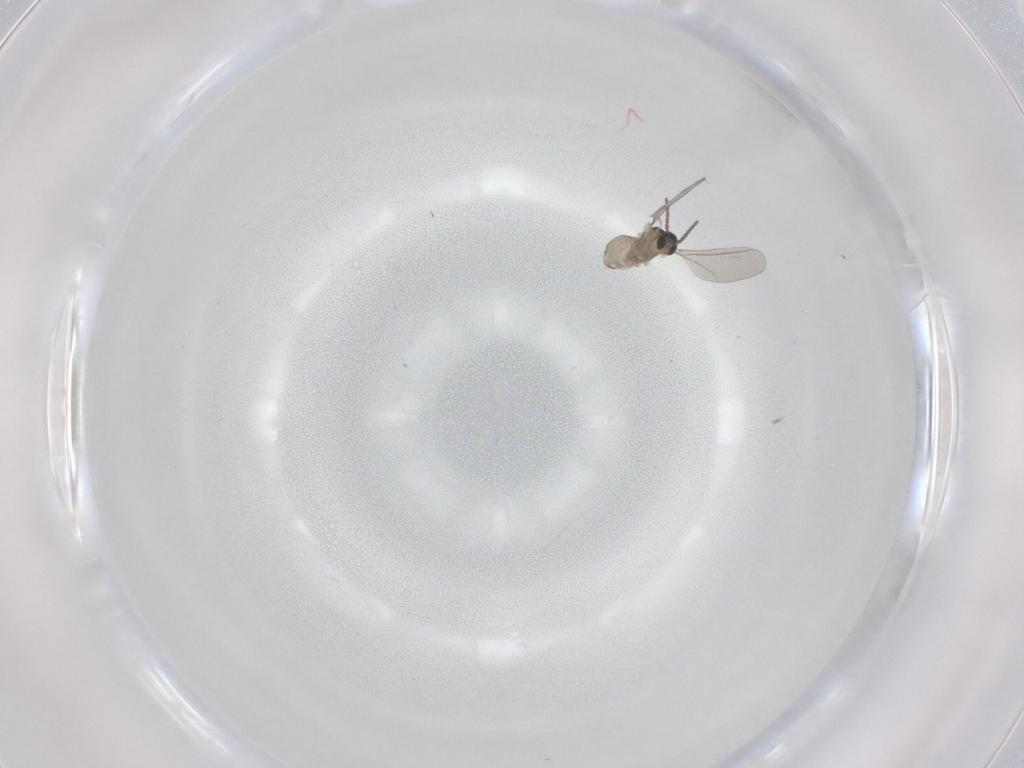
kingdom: Animalia
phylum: Arthropoda
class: Insecta
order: Diptera
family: Cecidomyiidae
